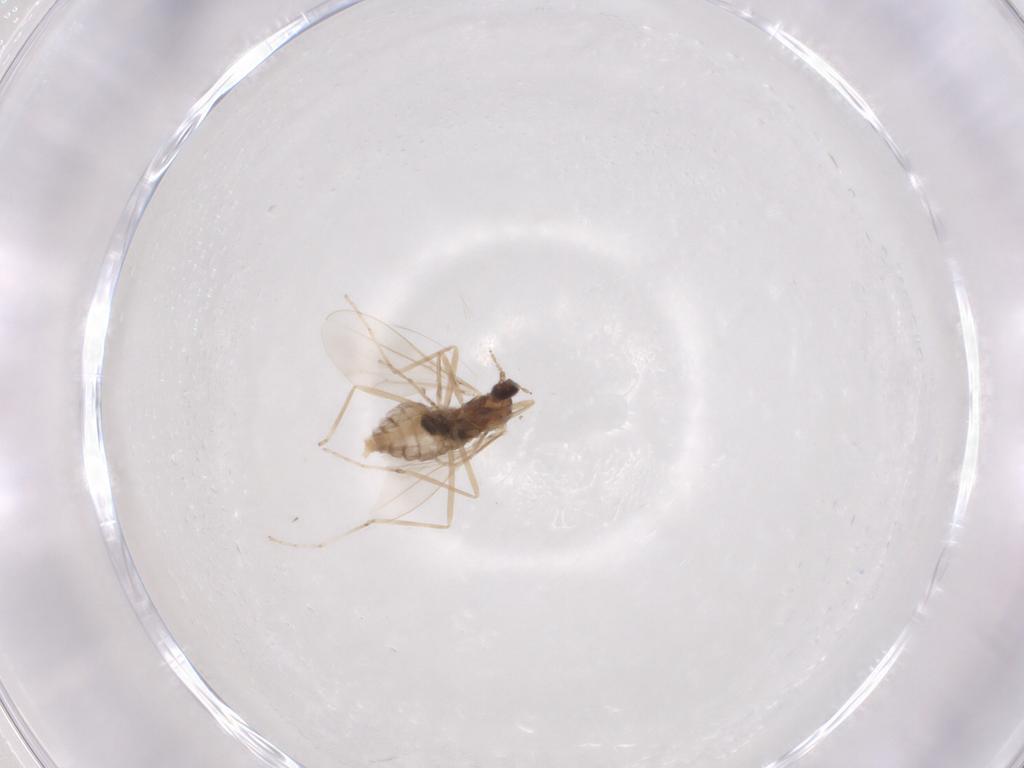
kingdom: Animalia
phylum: Arthropoda
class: Insecta
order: Diptera
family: Cecidomyiidae
